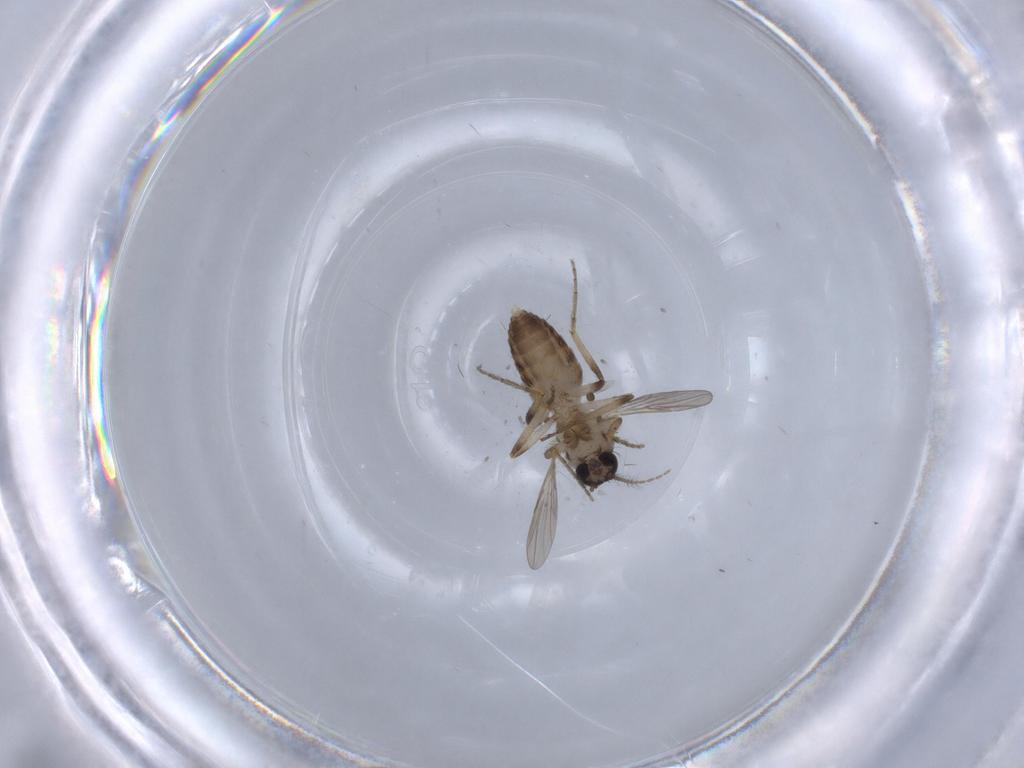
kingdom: Animalia
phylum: Arthropoda
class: Insecta
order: Diptera
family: Ceratopogonidae
